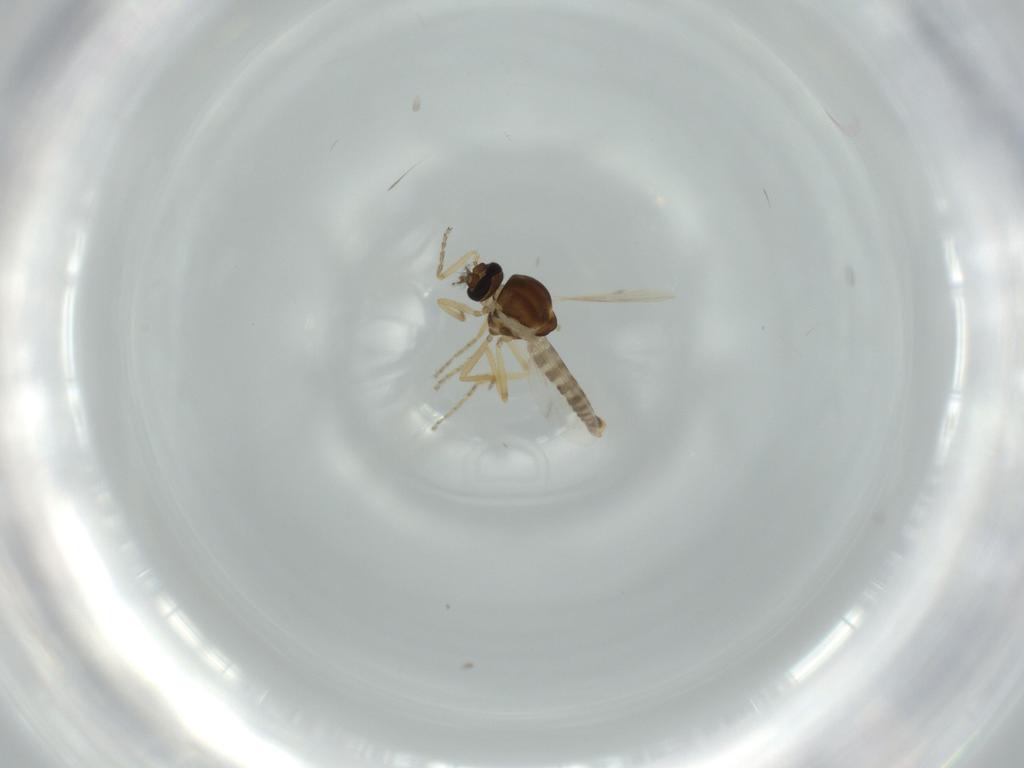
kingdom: Animalia
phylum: Arthropoda
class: Insecta
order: Diptera
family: Ceratopogonidae
